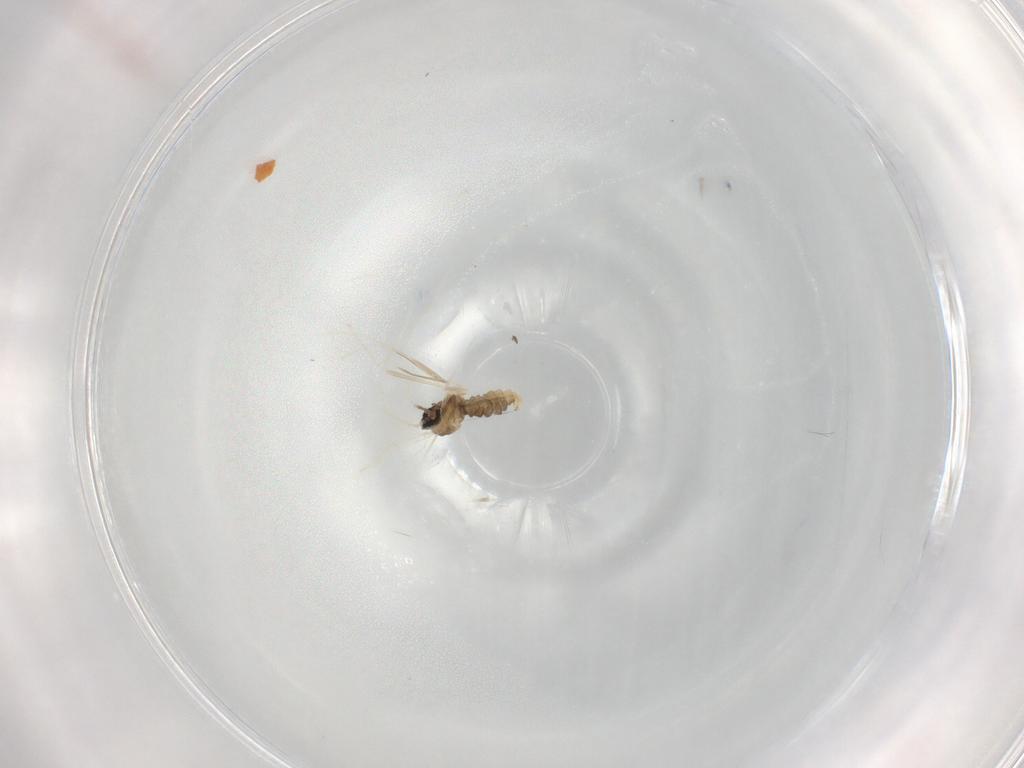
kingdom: Animalia
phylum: Arthropoda
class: Insecta
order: Diptera
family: Cecidomyiidae
